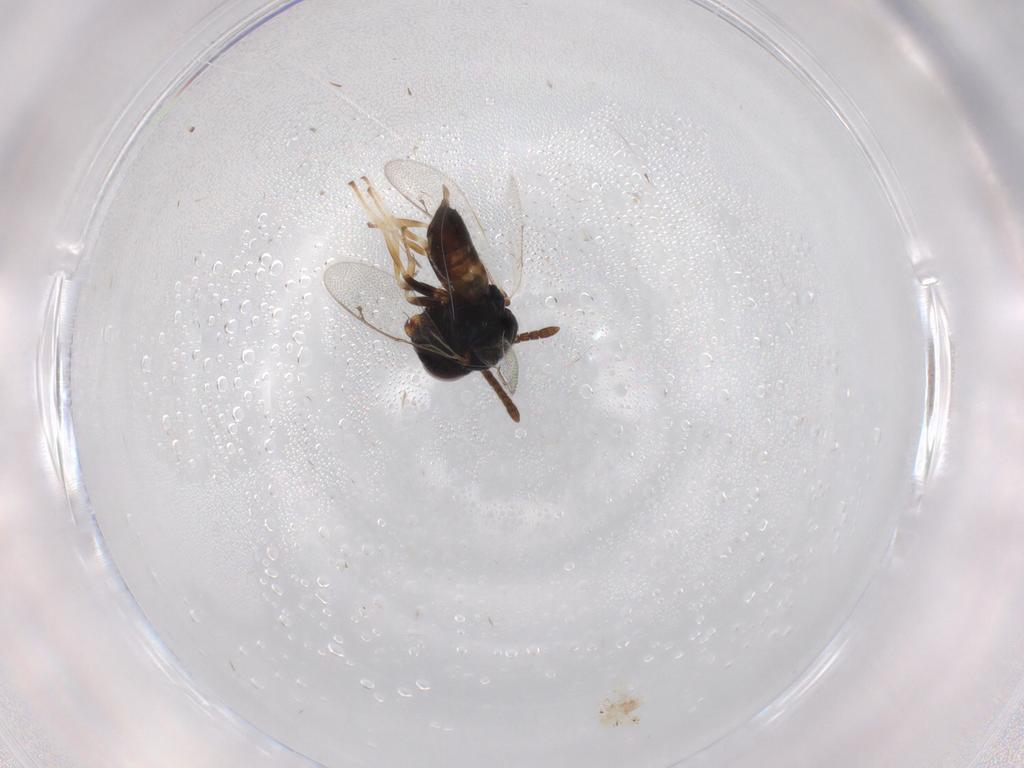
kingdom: Animalia
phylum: Arthropoda
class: Insecta
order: Hymenoptera
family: Pteromalidae
